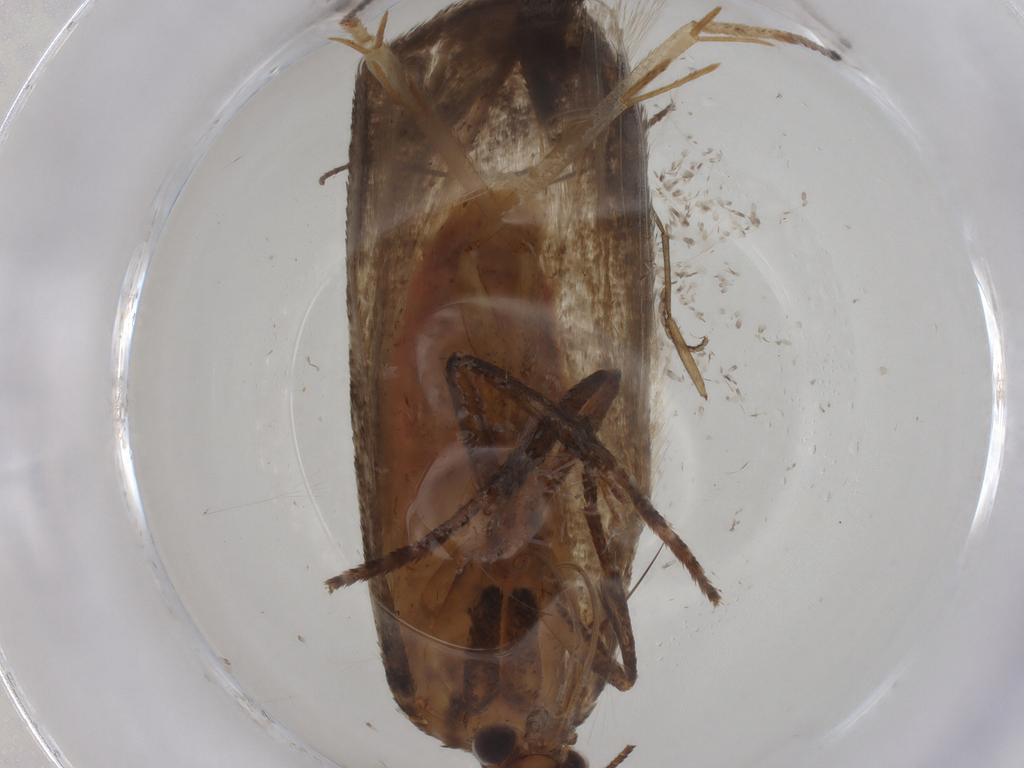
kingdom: Animalia
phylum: Arthropoda
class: Insecta
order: Lepidoptera
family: Cosmopterigidae
